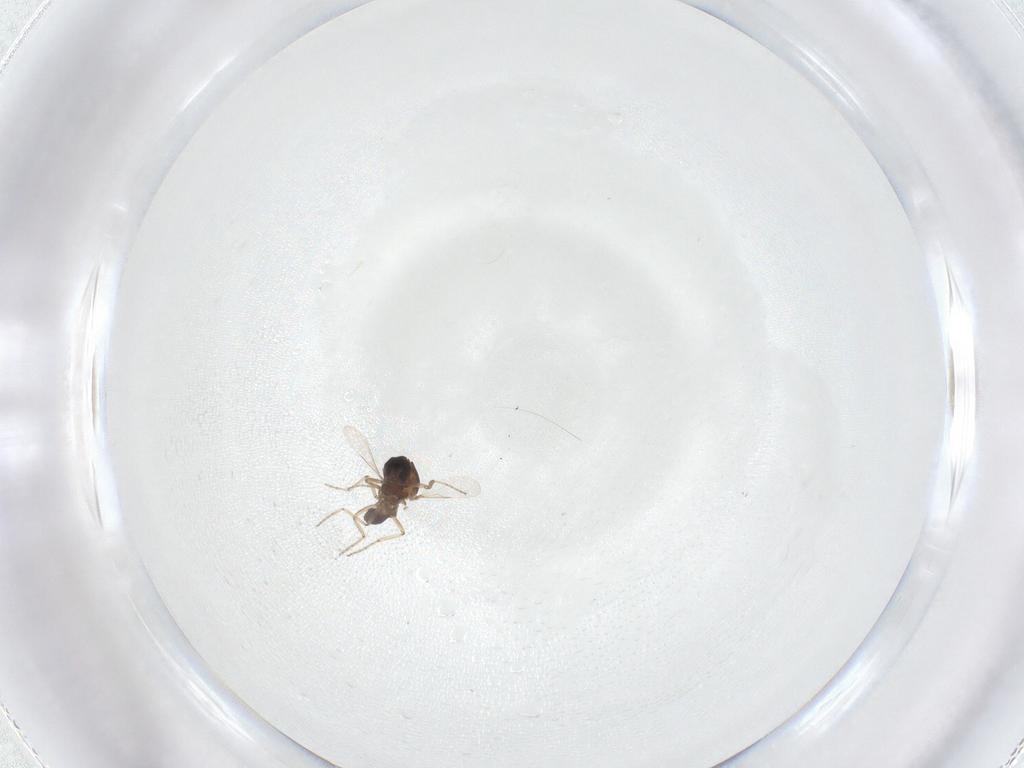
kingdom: Animalia
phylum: Arthropoda
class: Insecta
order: Diptera
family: Ceratopogonidae
